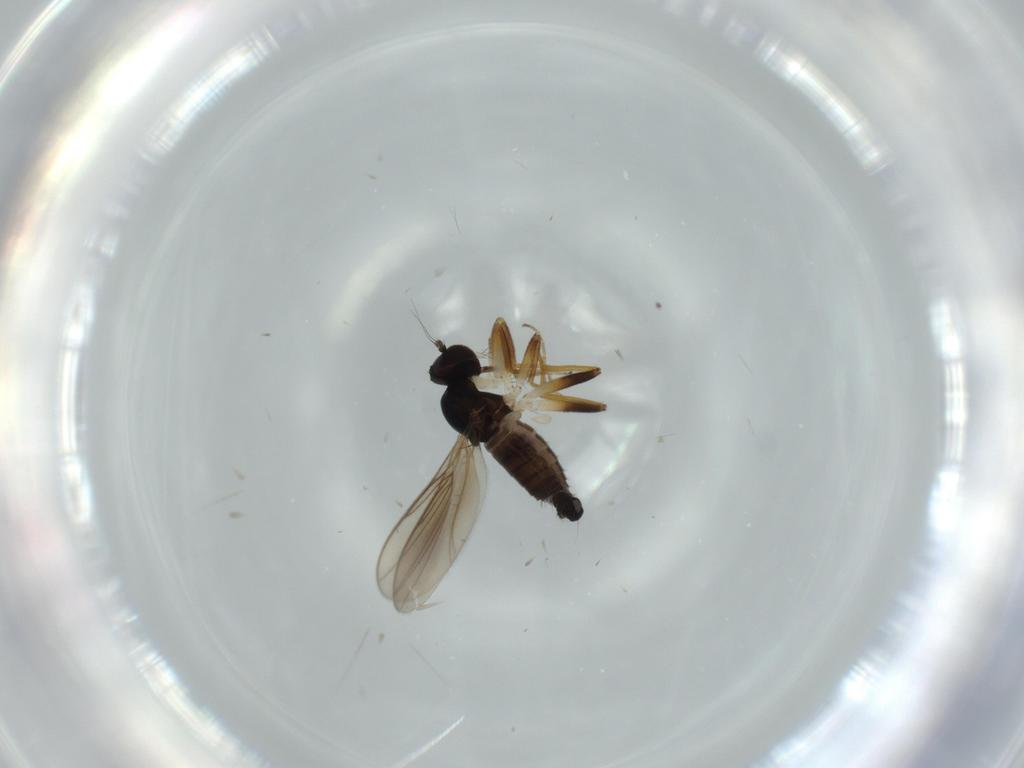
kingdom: Animalia
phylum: Arthropoda
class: Insecta
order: Diptera
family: Hybotidae
